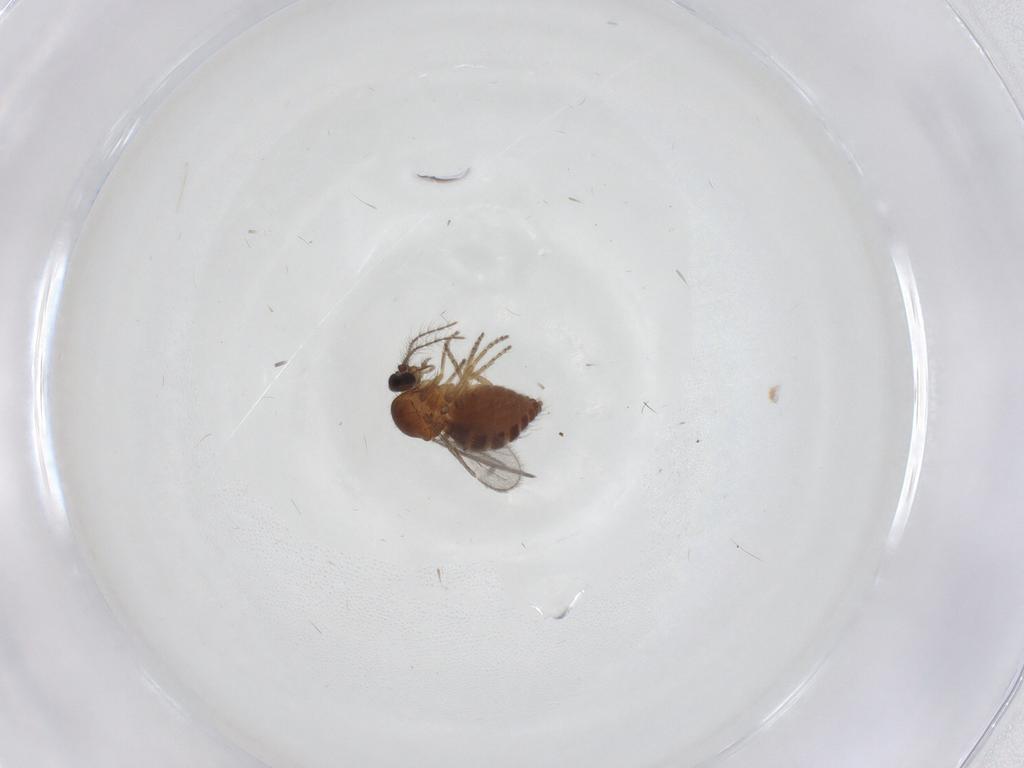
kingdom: Animalia
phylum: Arthropoda
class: Insecta
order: Diptera
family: Ceratopogonidae
